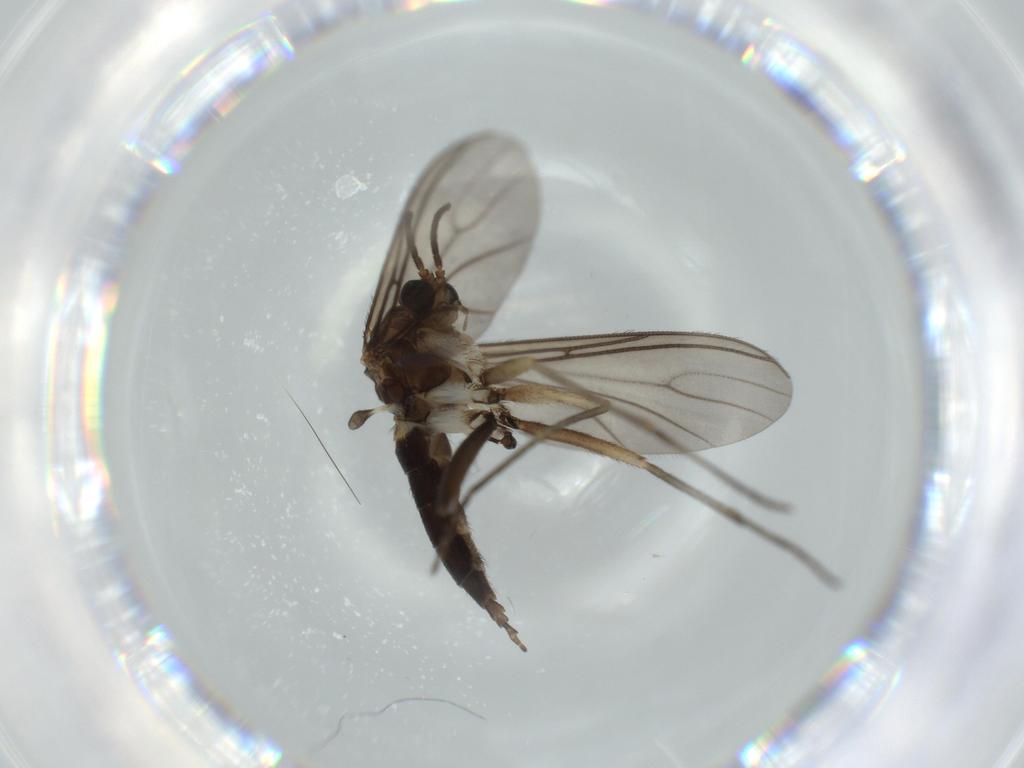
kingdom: Animalia
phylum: Arthropoda
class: Insecta
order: Diptera
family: Sciaridae
